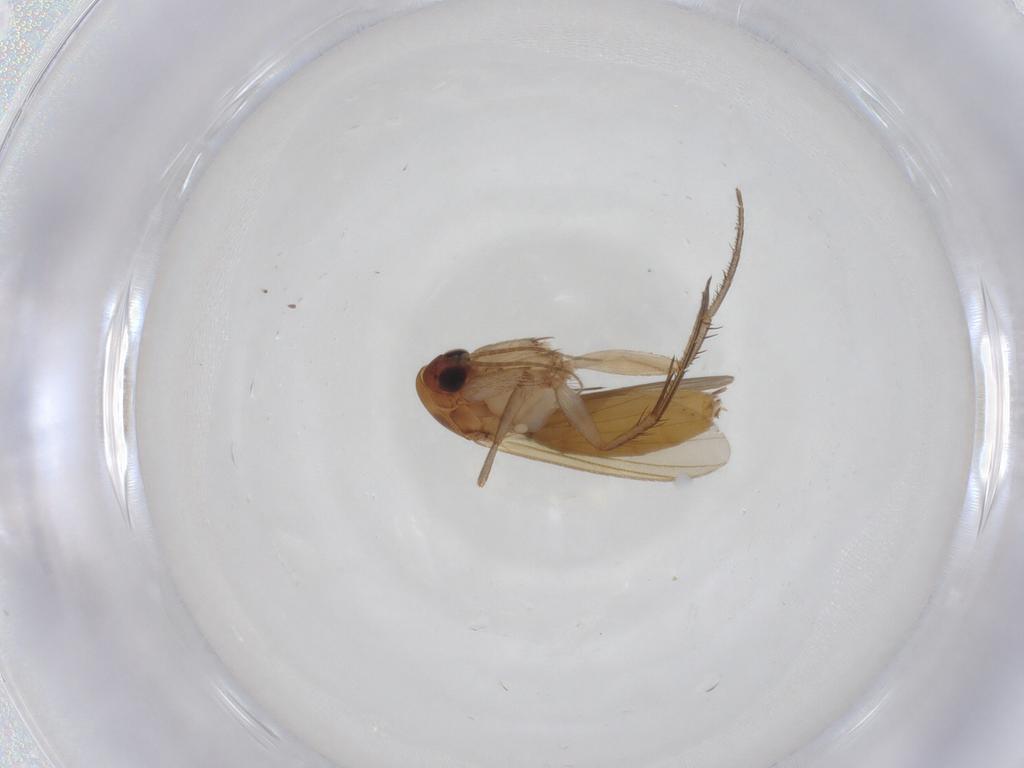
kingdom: Animalia
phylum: Arthropoda
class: Insecta
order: Diptera
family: Mycetophilidae
